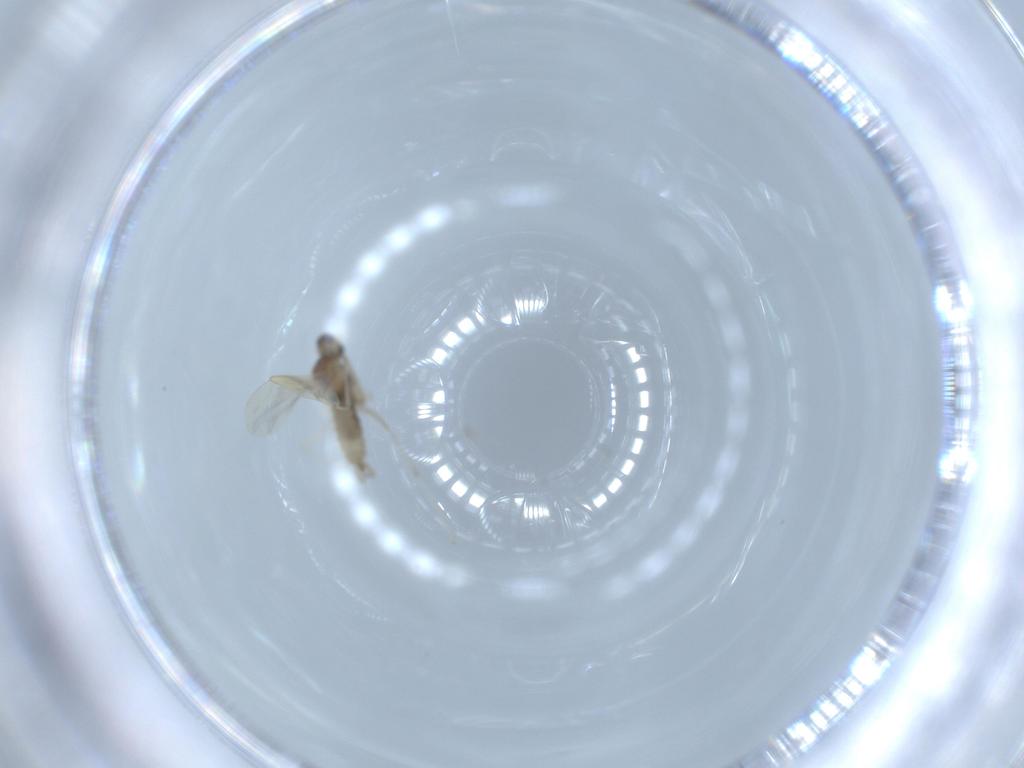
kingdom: Animalia
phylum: Arthropoda
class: Insecta
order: Diptera
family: Cecidomyiidae
